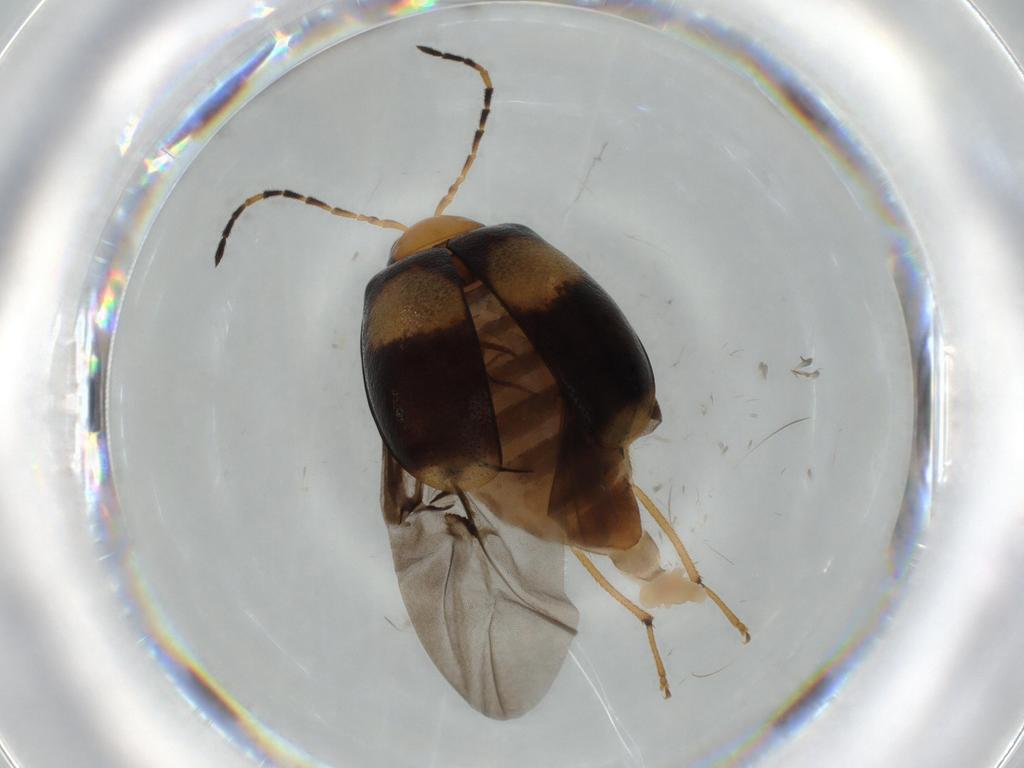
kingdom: Animalia
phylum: Arthropoda
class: Insecta
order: Coleoptera
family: Chrysomelidae
